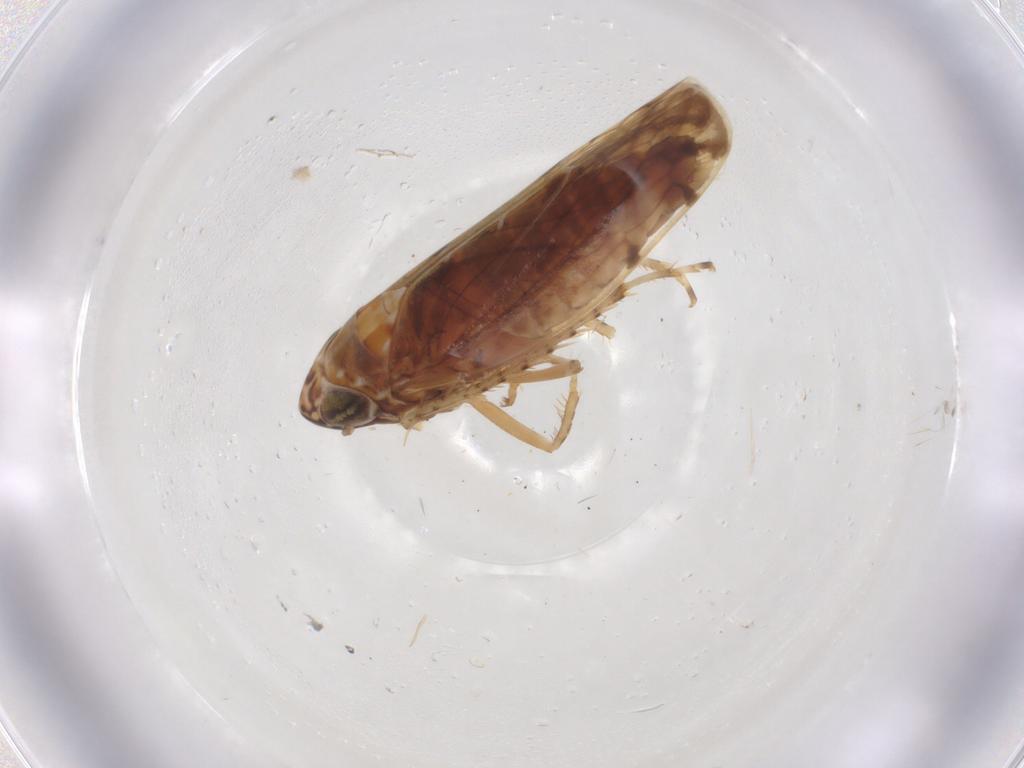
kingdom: Animalia
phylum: Arthropoda
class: Insecta
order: Hemiptera
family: Cicadellidae
